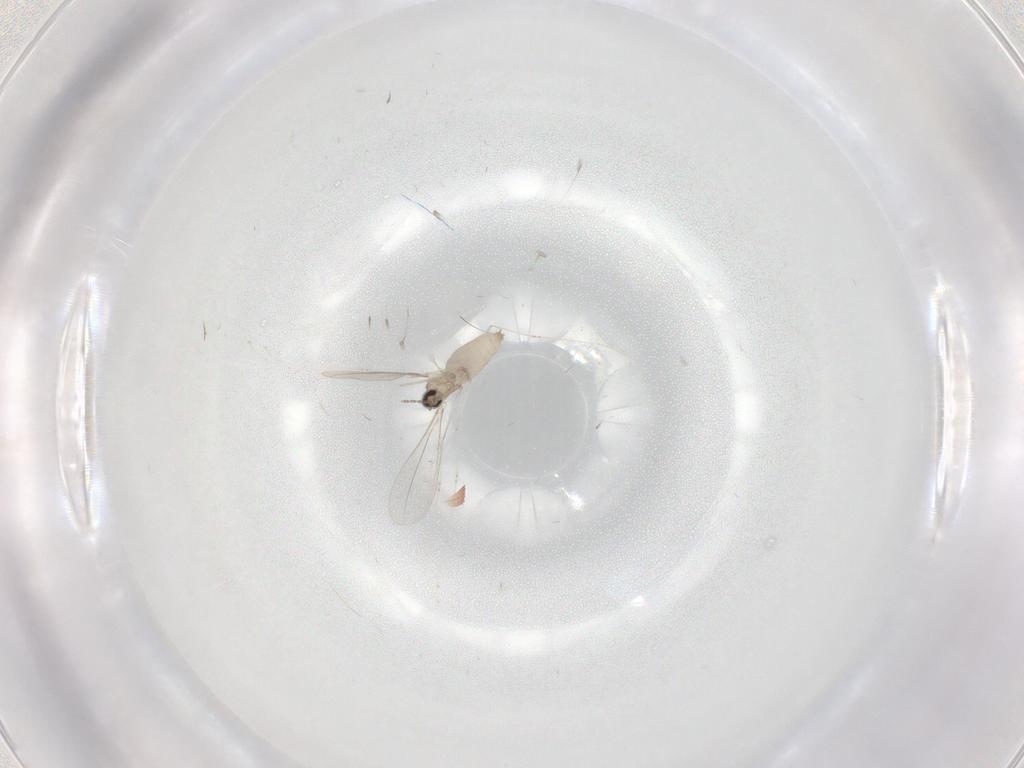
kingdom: Animalia
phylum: Arthropoda
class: Insecta
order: Diptera
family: Cecidomyiidae
